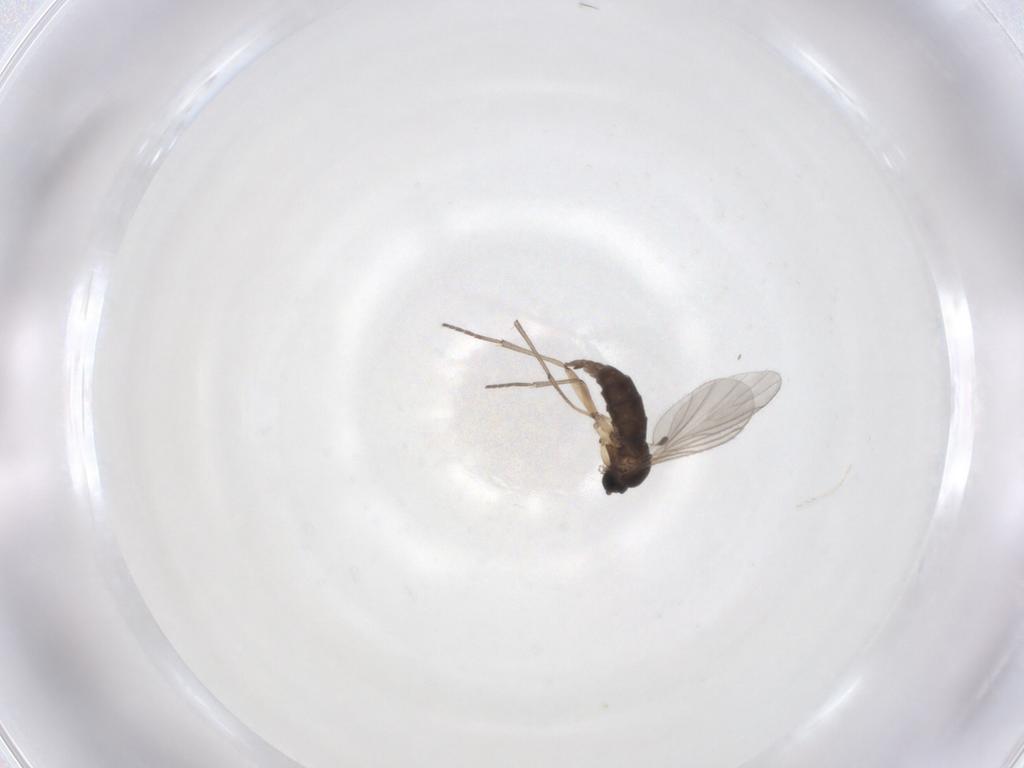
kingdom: Animalia
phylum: Arthropoda
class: Insecta
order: Diptera
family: Sciaridae
